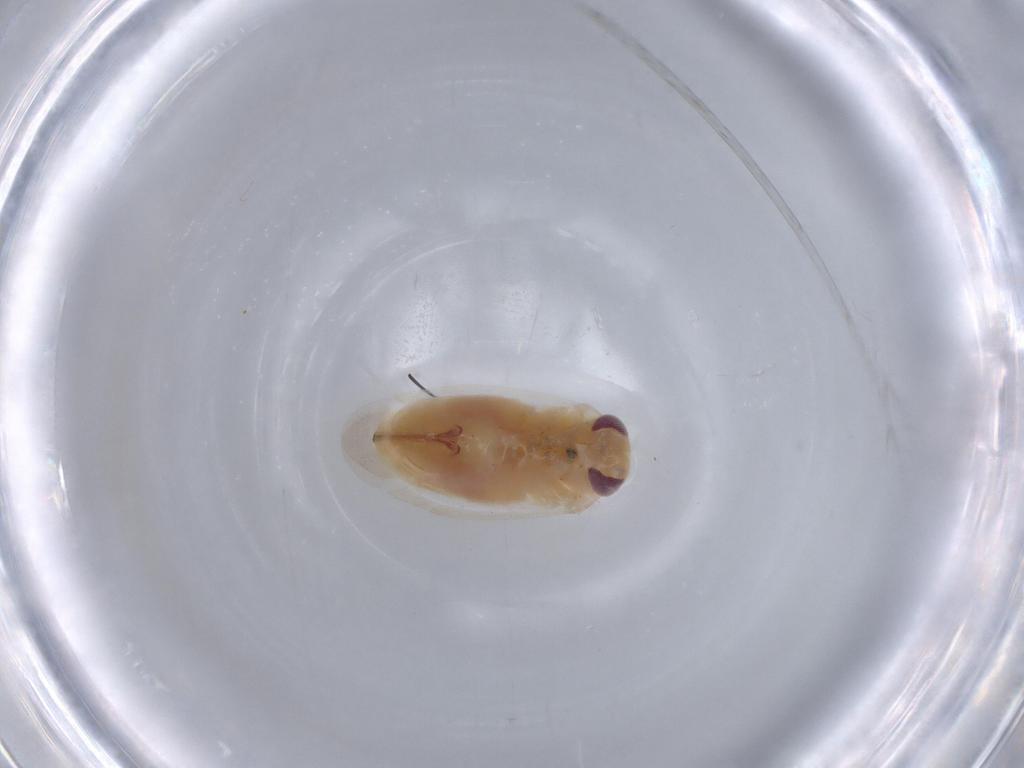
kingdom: Animalia
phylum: Arthropoda
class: Insecta
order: Hemiptera
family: Miridae
